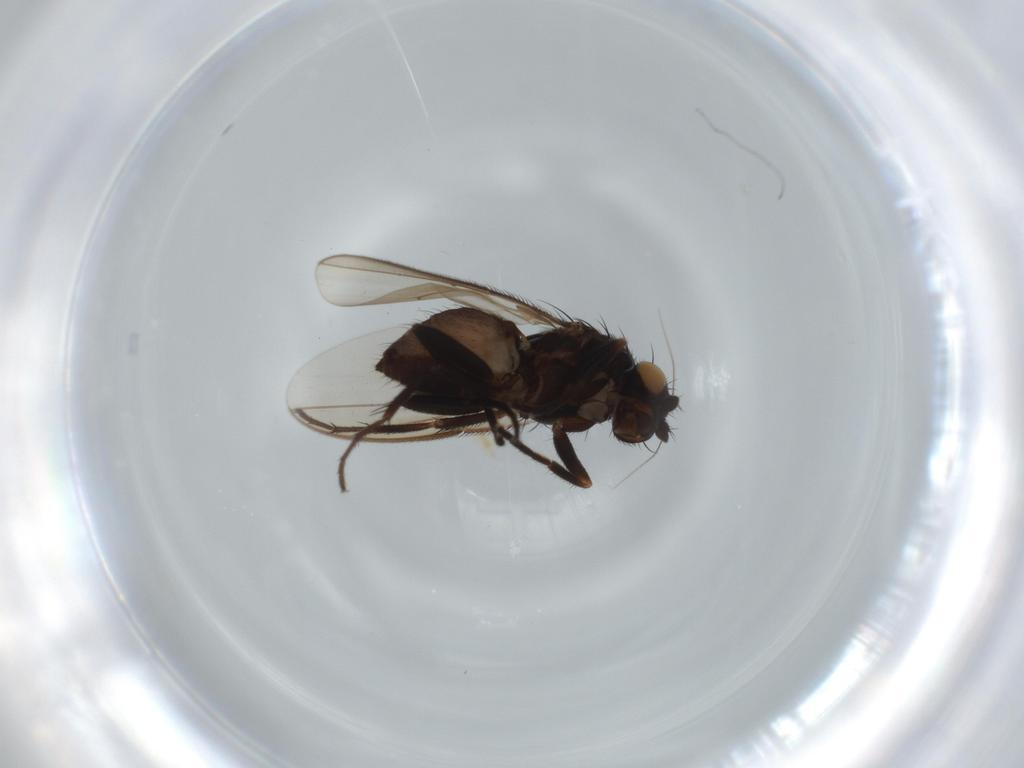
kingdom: Animalia
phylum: Arthropoda
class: Insecta
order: Diptera
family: Sphaeroceridae
